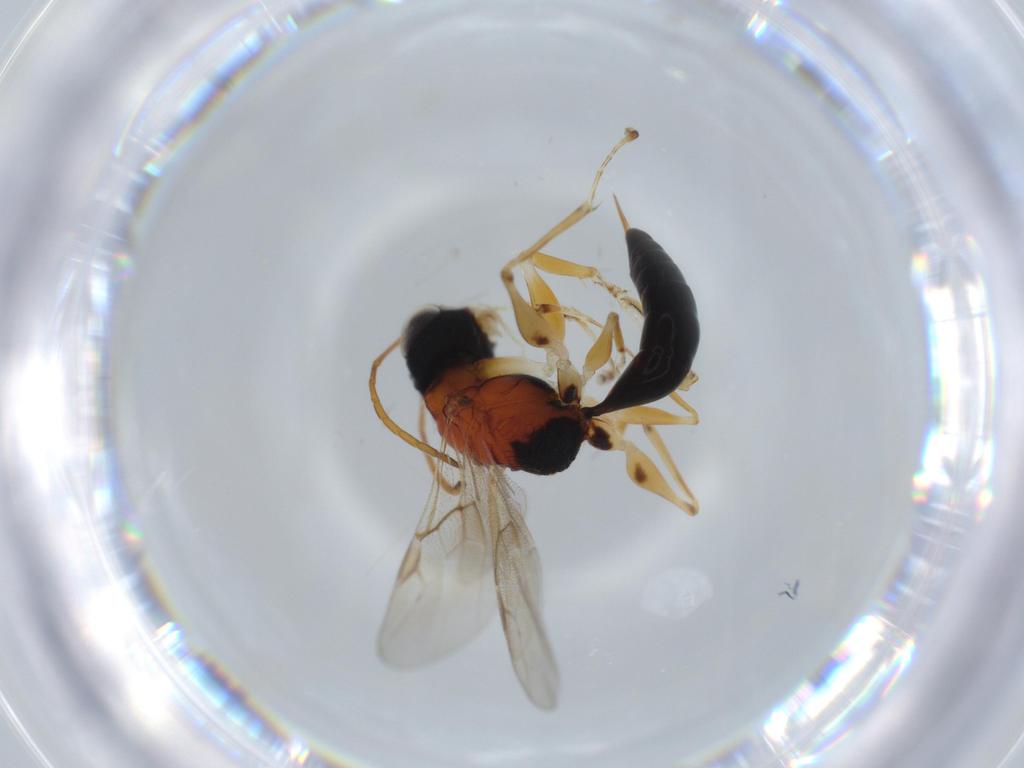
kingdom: Animalia
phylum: Arthropoda
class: Insecta
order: Hymenoptera
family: Dryinidae
